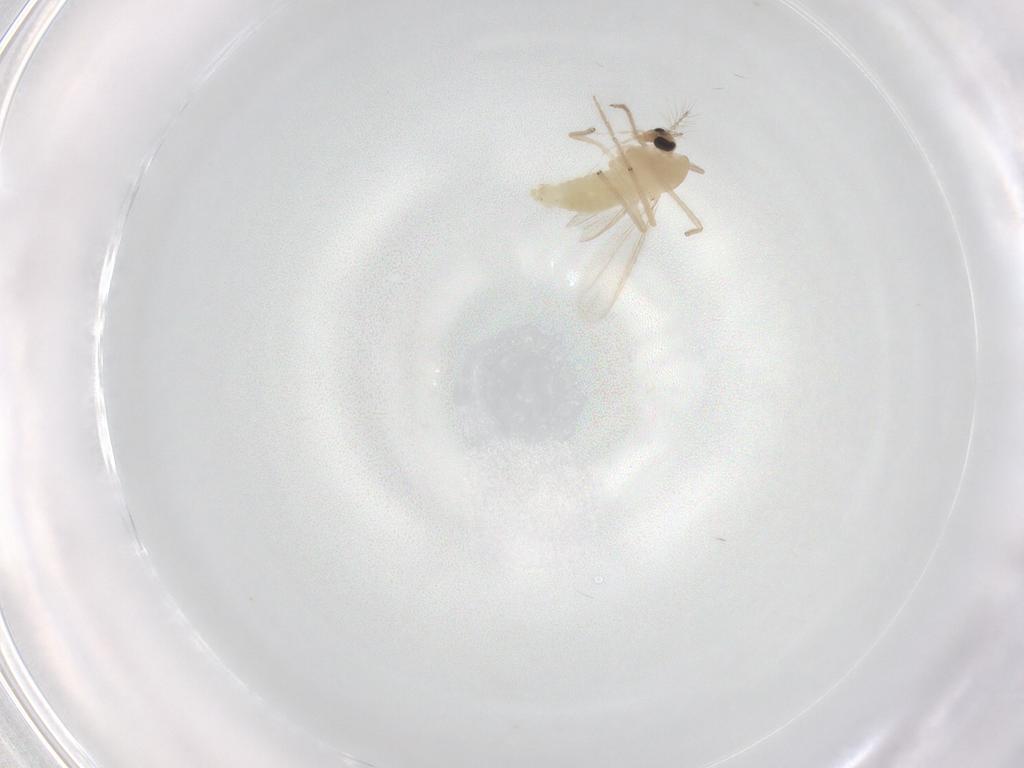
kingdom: Animalia
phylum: Arthropoda
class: Insecta
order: Diptera
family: Chironomidae
